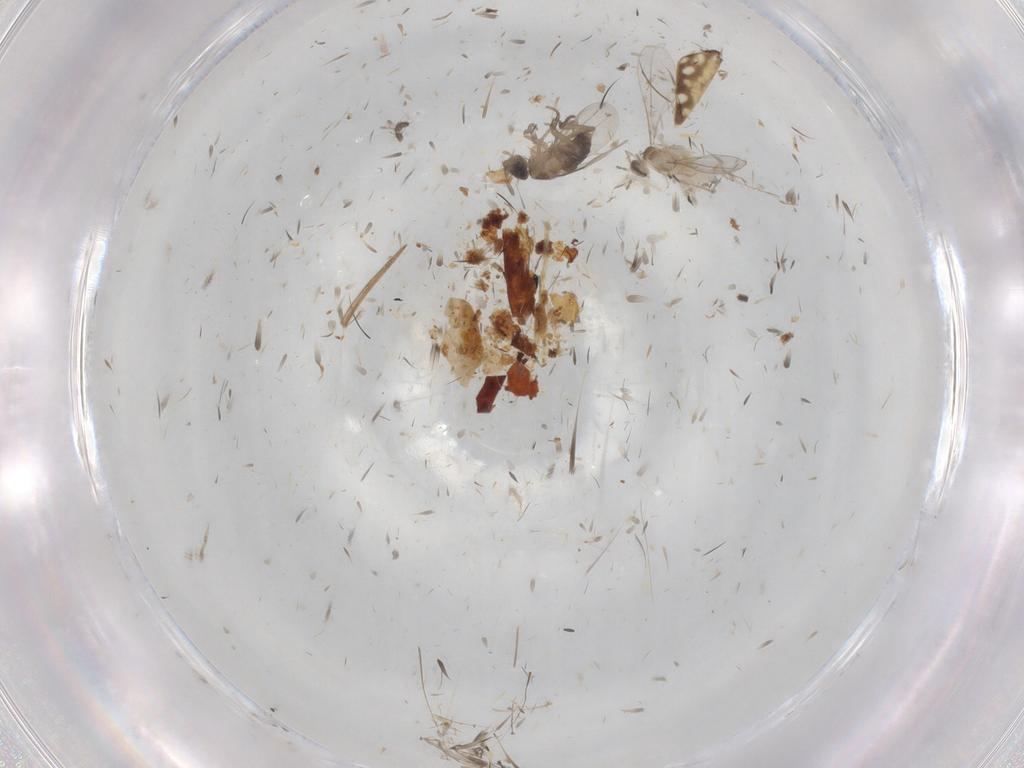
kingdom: Animalia
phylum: Arthropoda
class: Insecta
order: Diptera
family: Phoridae
